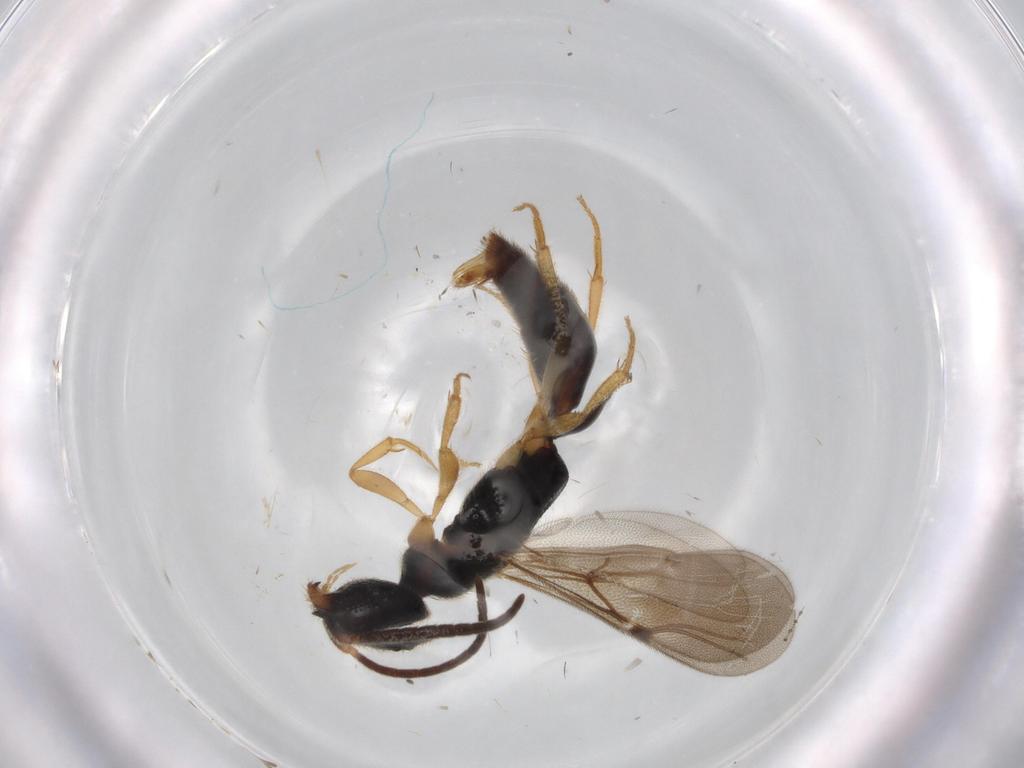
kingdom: Animalia
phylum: Arthropoda
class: Insecta
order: Hymenoptera
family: Bethylidae
